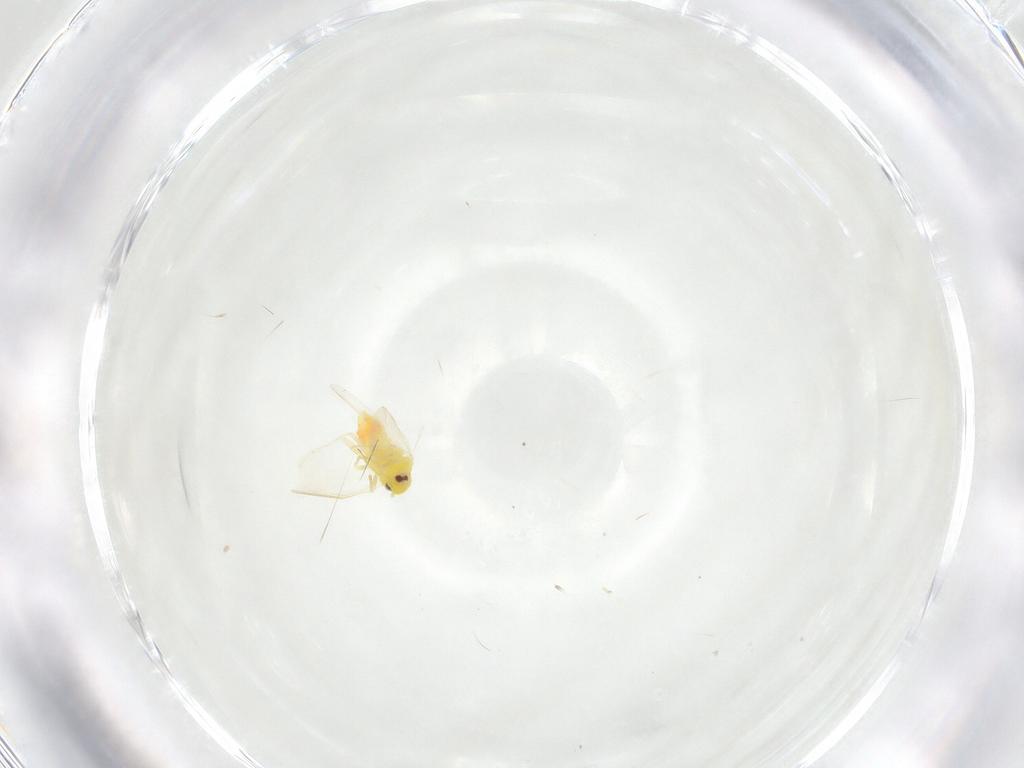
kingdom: Animalia
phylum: Arthropoda
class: Insecta
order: Hemiptera
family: Aleyrodidae
